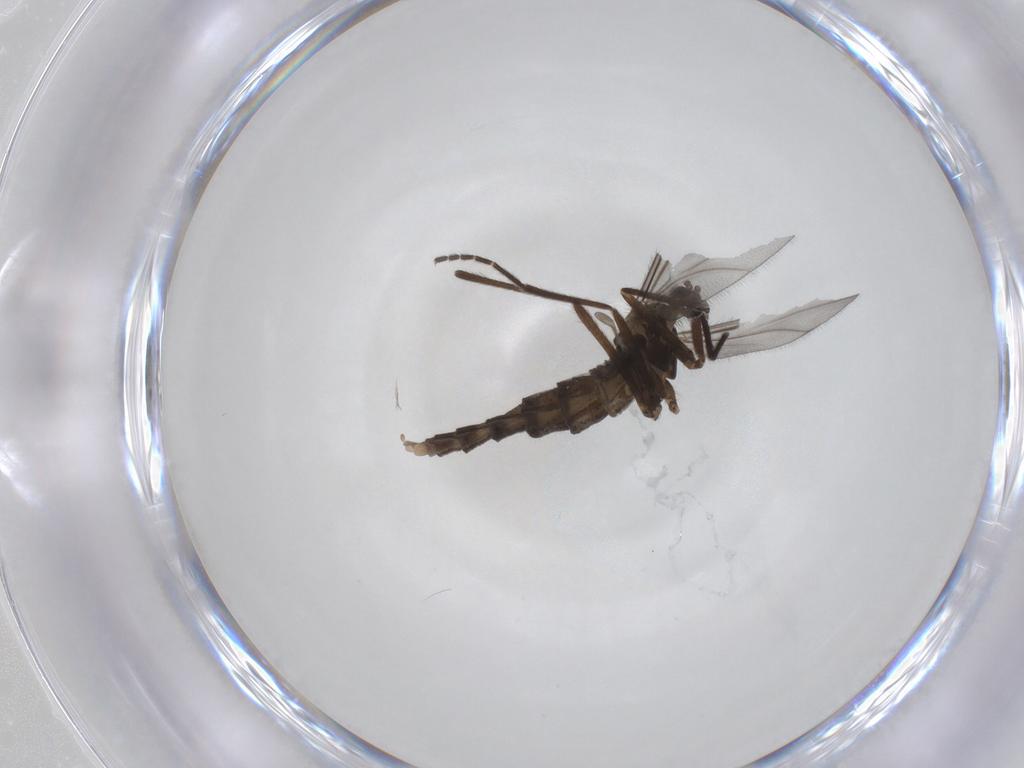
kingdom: Animalia
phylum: Arthropoda
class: Insecta
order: Diptera
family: Cecidomyiidae
